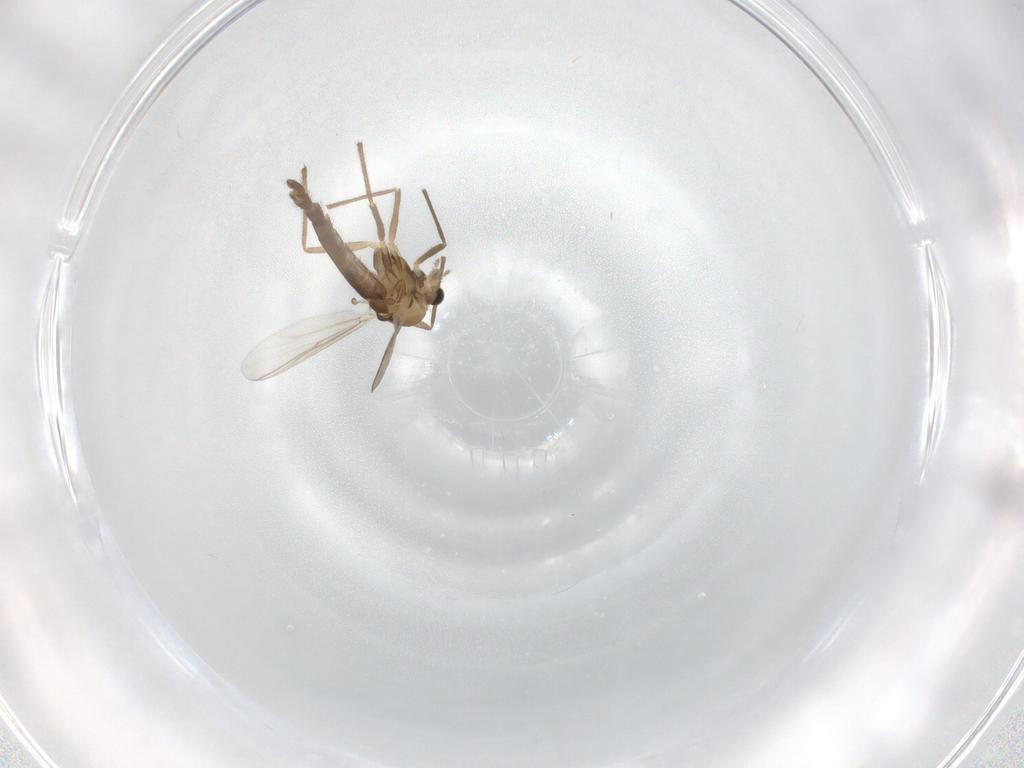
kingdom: Animalia
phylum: Arthropoda
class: Insecta
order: Diptera
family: Chironomidae
